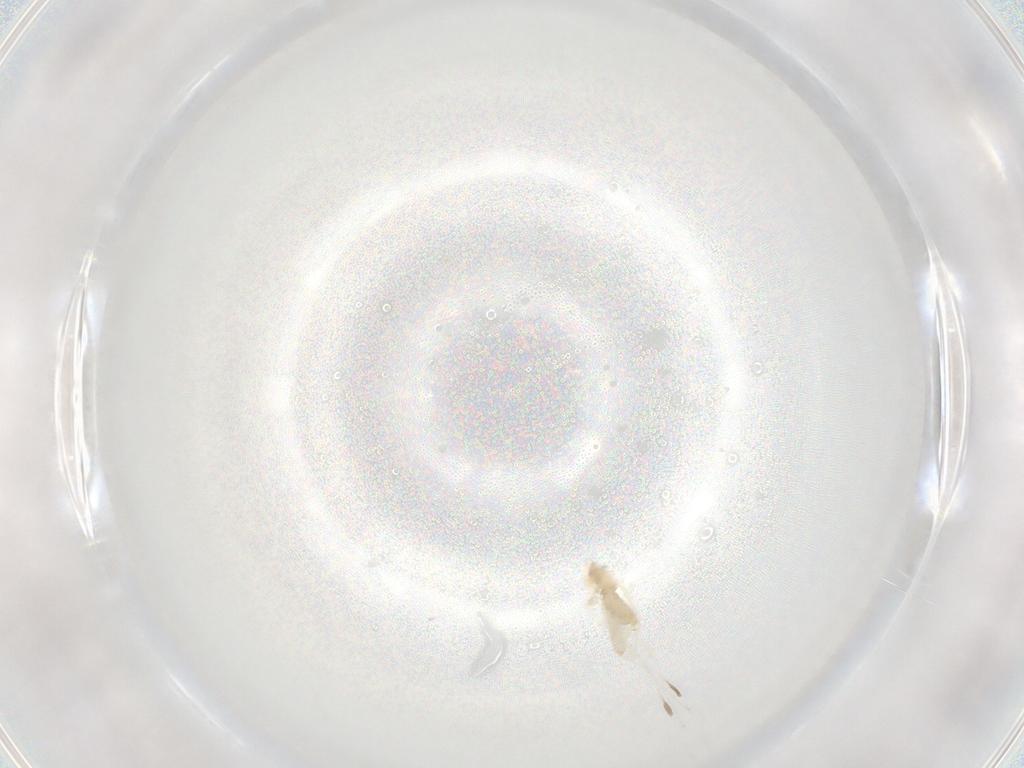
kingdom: Animalia
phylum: Arthropoda
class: Insecta
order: Diptera
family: Cecidomyiidae
